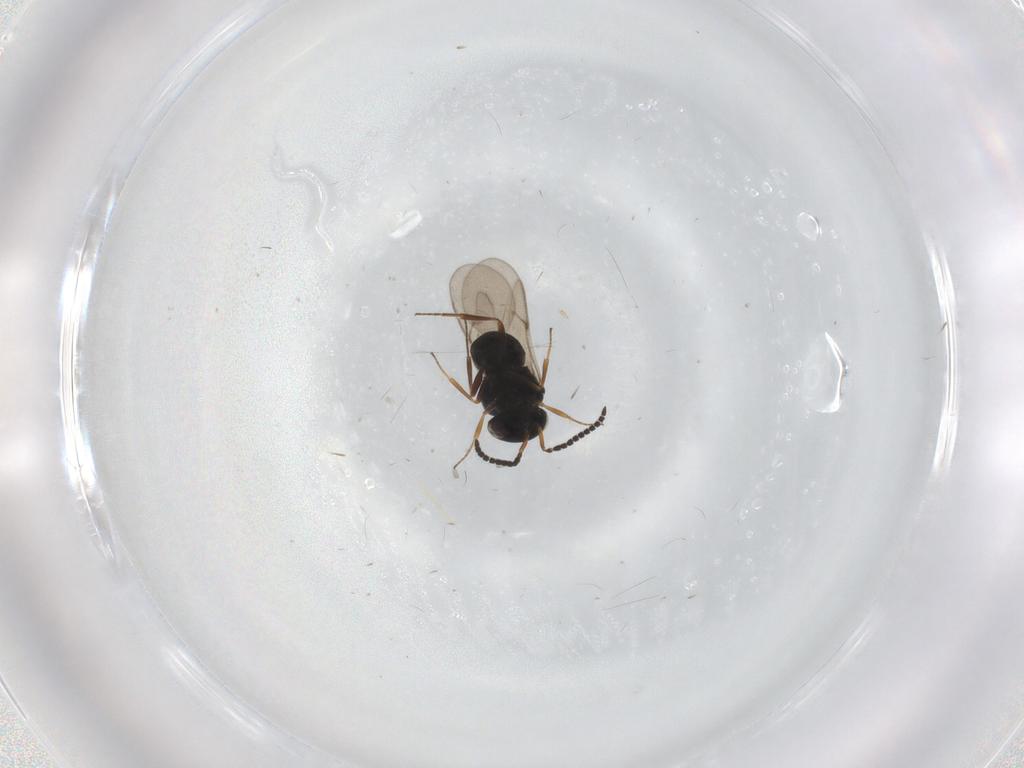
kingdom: Animalia
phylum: Arthropoda
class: Insecta
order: Hymenoptera
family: Scelionidae
